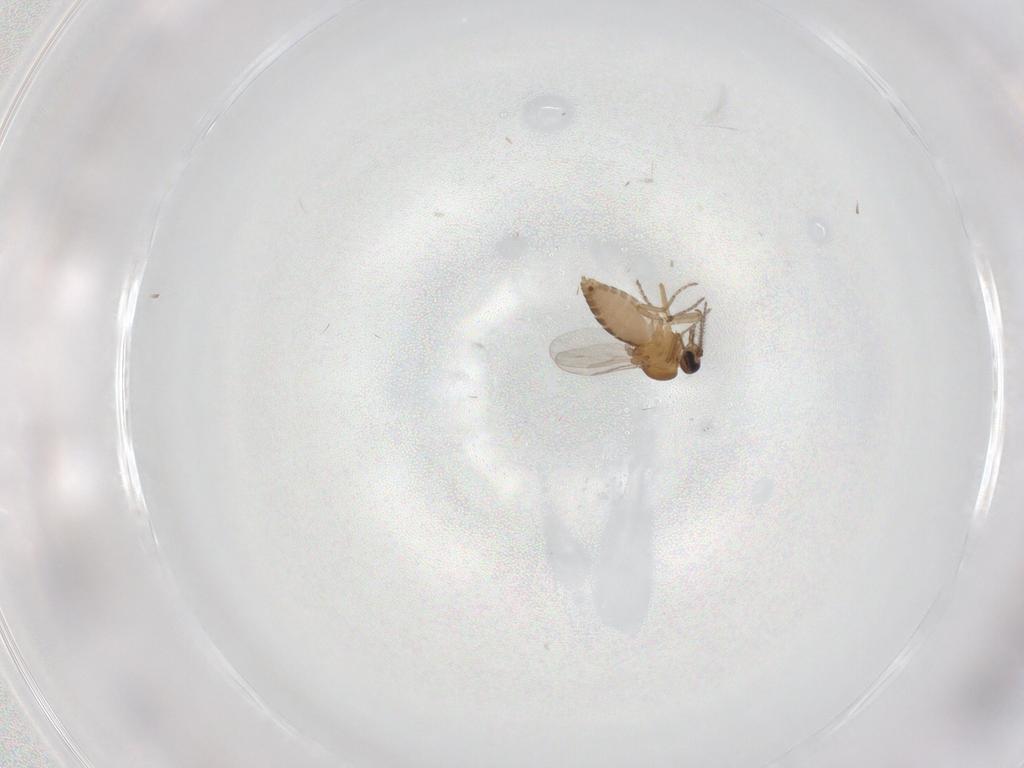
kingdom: Animalia
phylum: Arthropoda
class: Insecta
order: Diptera
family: Ceratopogonidae
